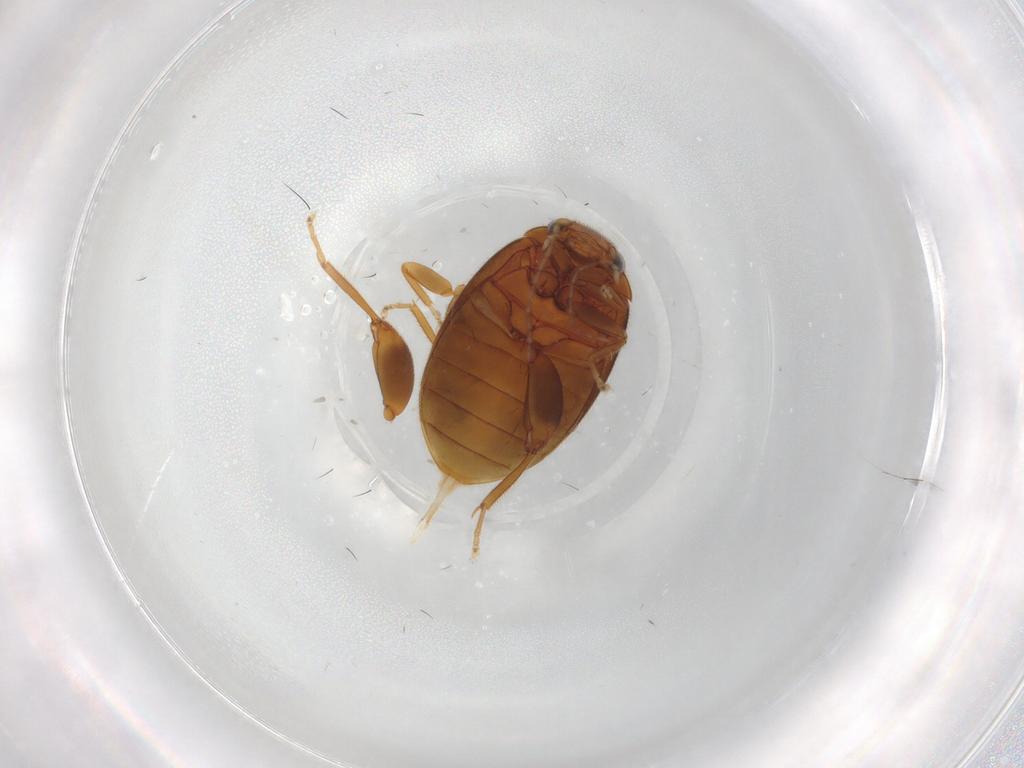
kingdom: Animalia
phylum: Arthropoda
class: Insecta
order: Coleoptera
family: Scirtidae
